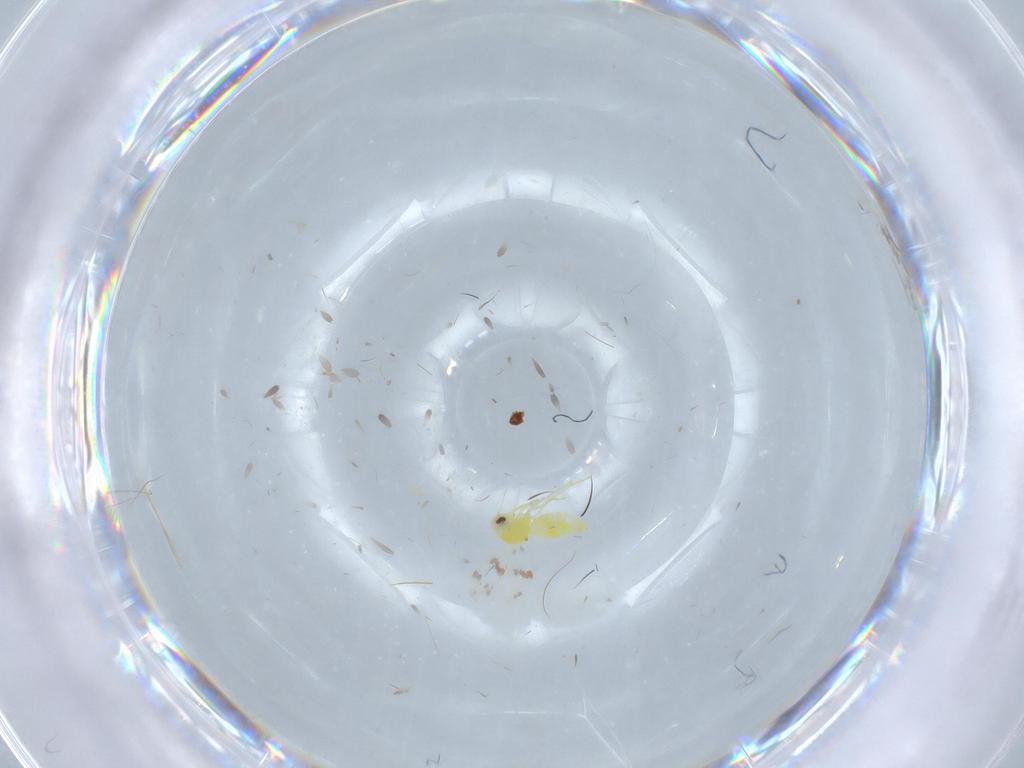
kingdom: Animalia
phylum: Arthropoda
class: Insecta
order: Hemiptera
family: Aleyrodidae
